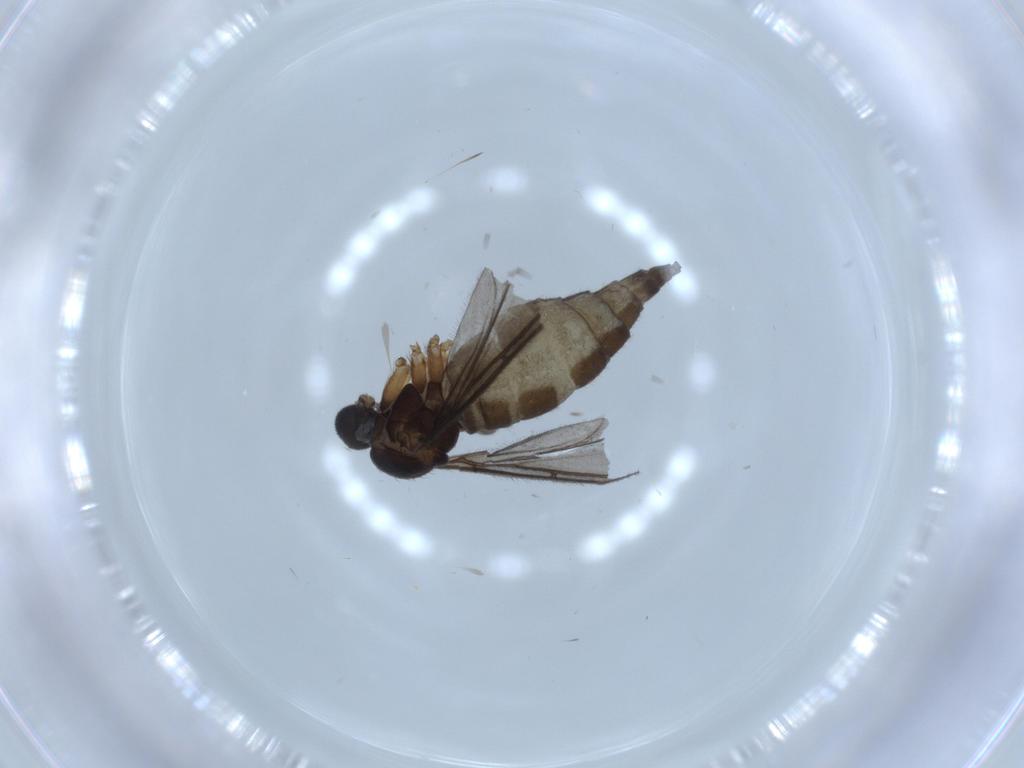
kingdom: Animalia
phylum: Arthropoda
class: Insecta
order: Diptera
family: Sciaridae
